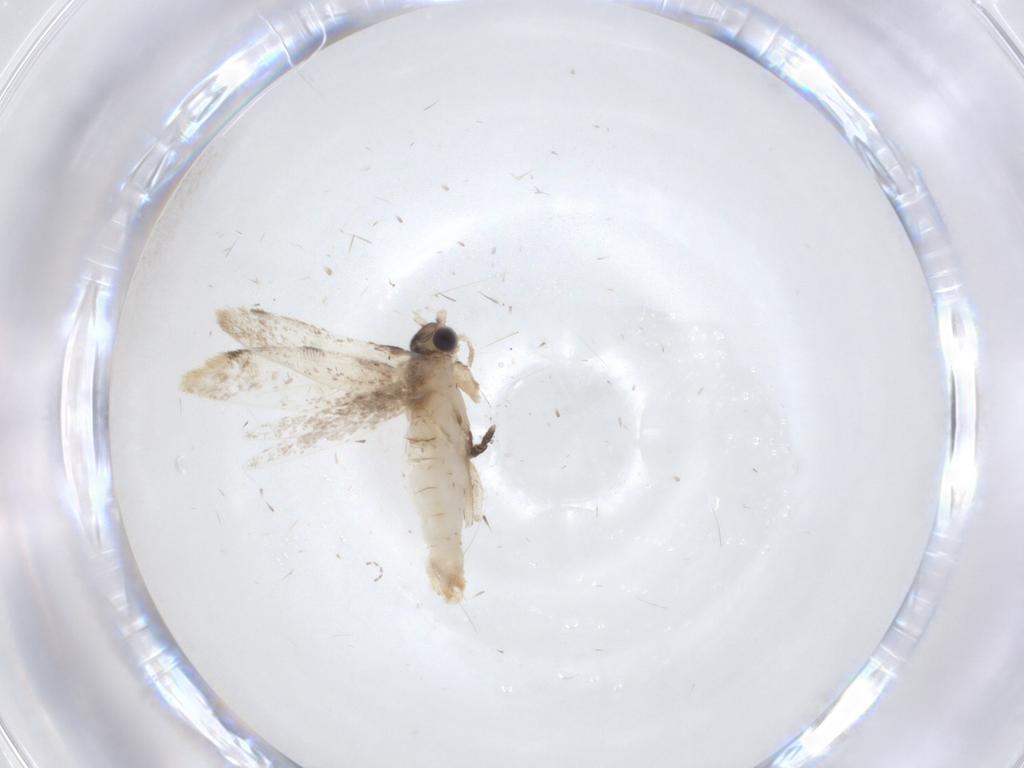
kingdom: Animalia
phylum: Arthropoda
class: Insecta
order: Lepidoptera
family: Dryadaulidae
